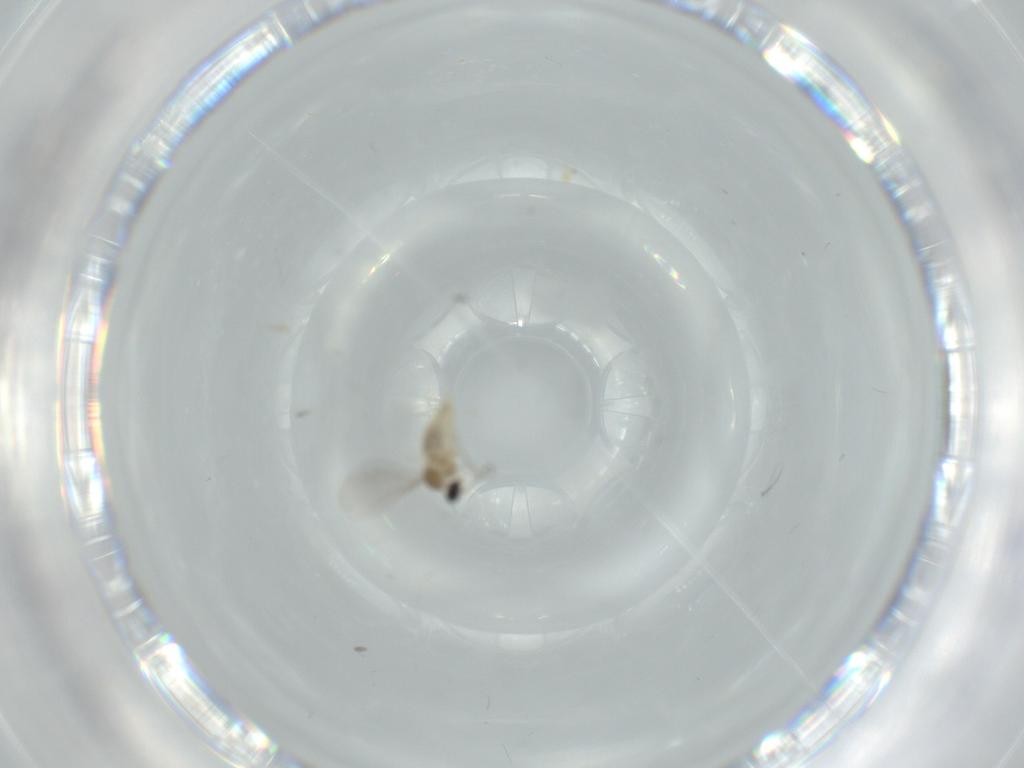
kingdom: Animalia
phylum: Arthropoda
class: Insecta
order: Diptera
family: Cecidomyiidae
